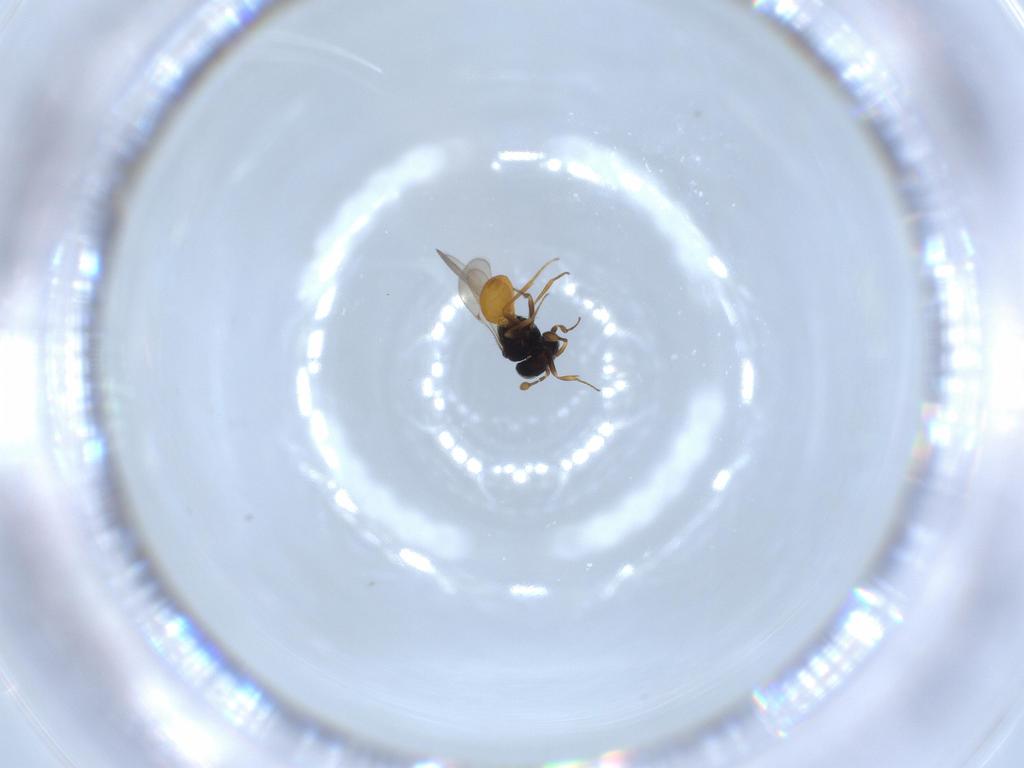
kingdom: Animalia
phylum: Arthropoda
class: Insecta
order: Hymenoptera
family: Scelionidae
